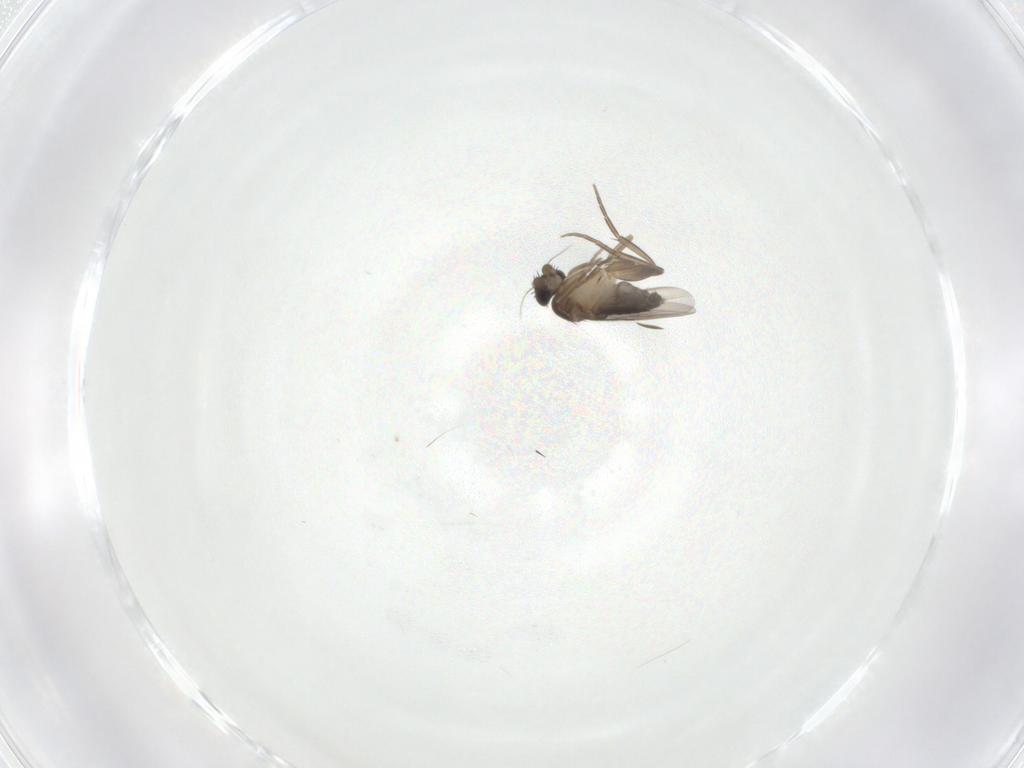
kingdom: Animalia
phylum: Arthropoda
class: Insecta
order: Diptera
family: Phoridae
